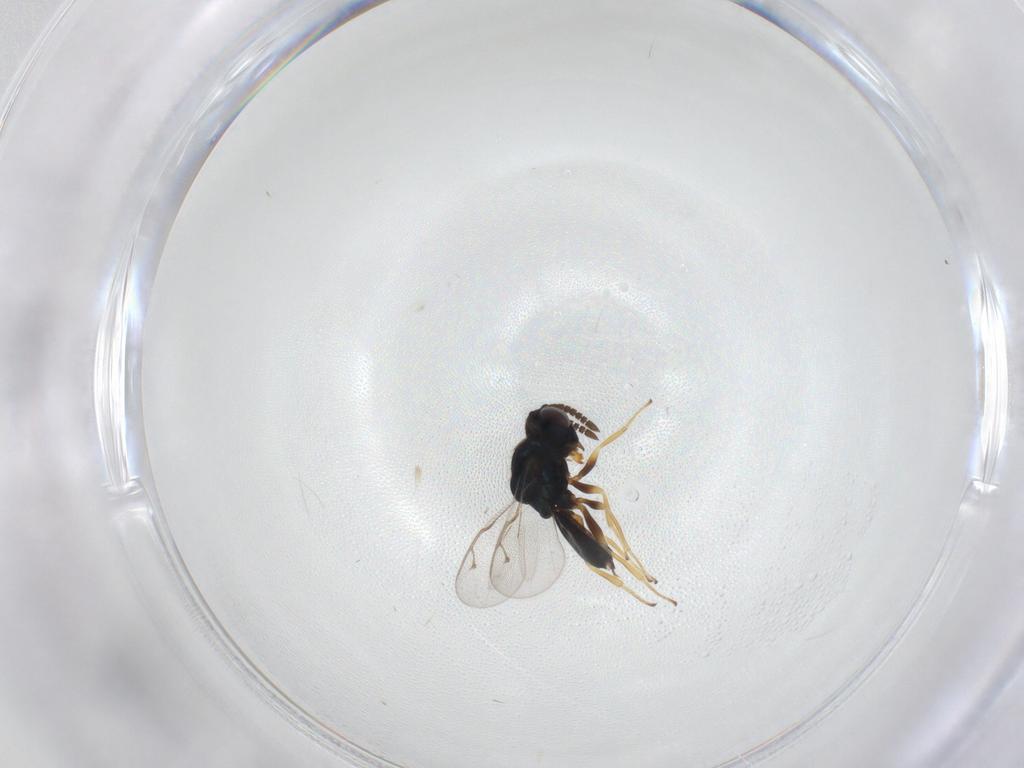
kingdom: Animalia
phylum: Arthropoda
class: Insecta
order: Hymenoptera
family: Pteromalidae
